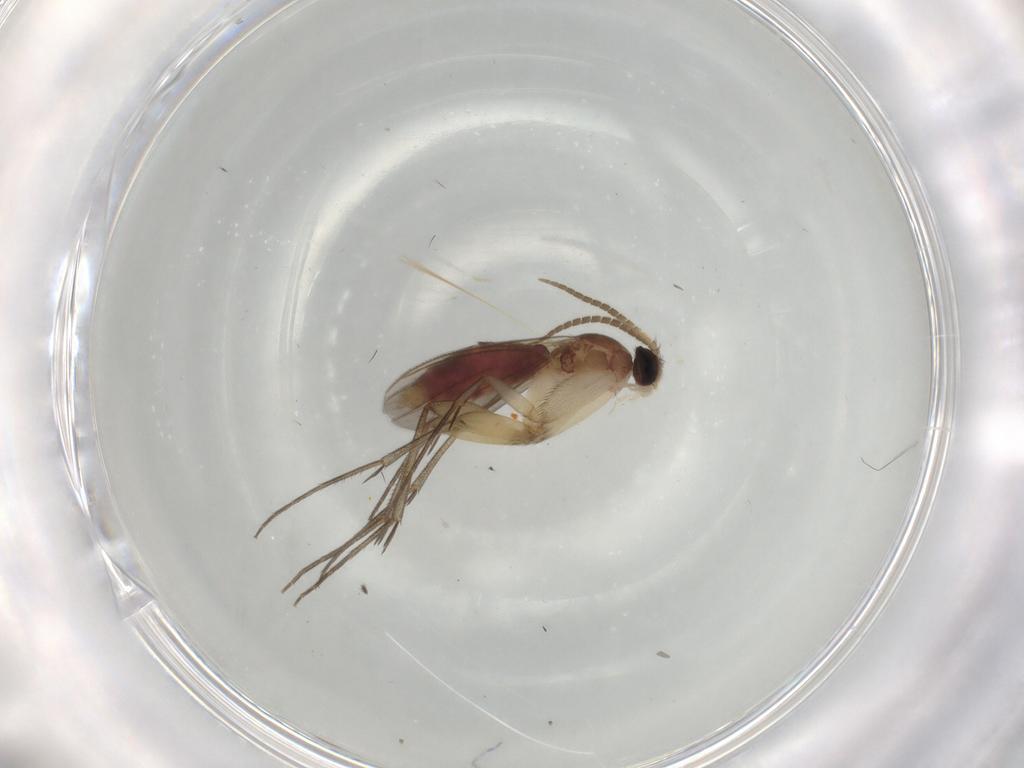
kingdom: Animalia
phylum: Arthropoda
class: Insecta
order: Diptera
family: Mycetophilidae
